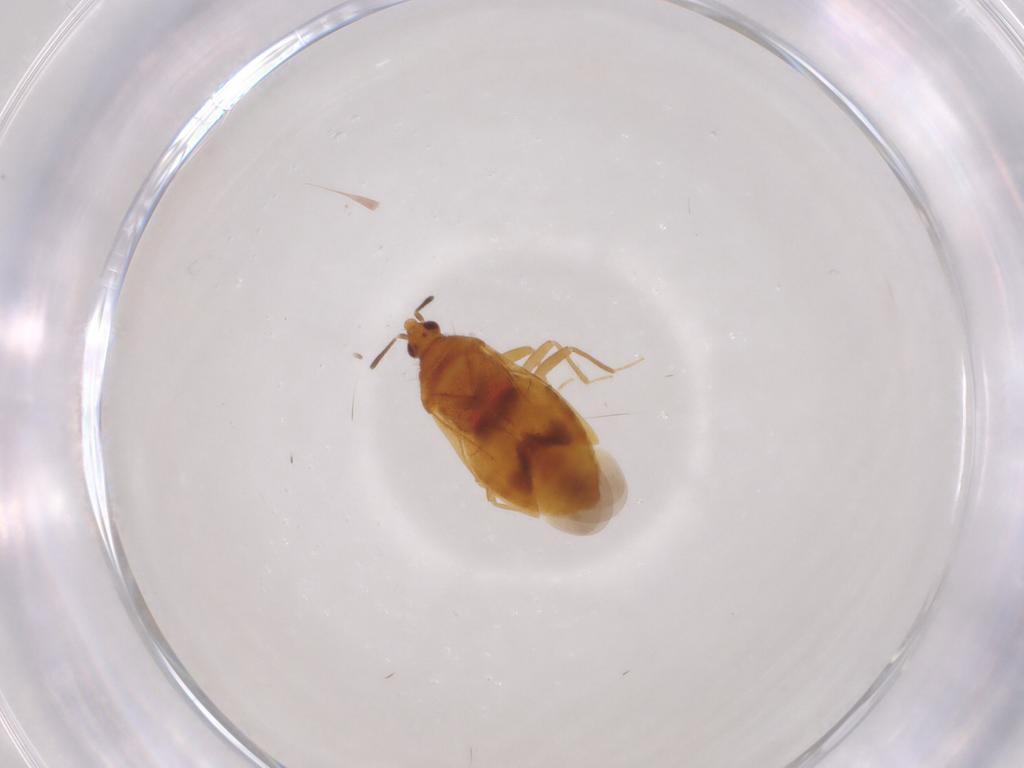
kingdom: Animalia
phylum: Arthropoda
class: Insecta
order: Hemiptera
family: Lasiochilidae
